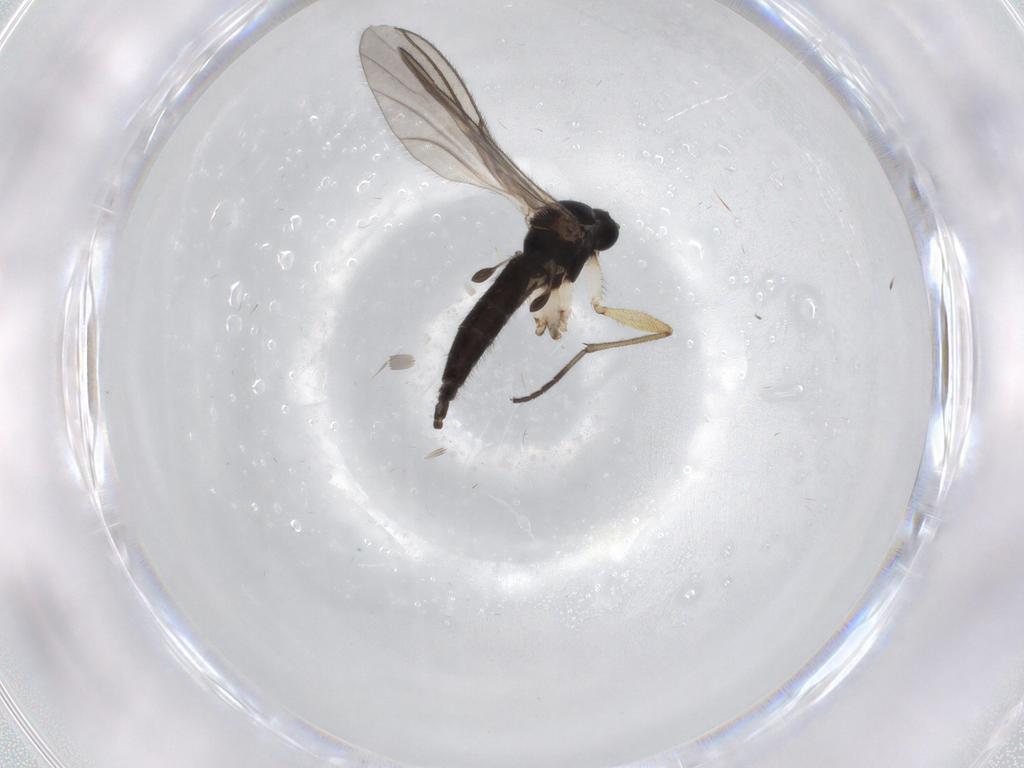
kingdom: Animalia
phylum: Arthropoda
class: Insecta
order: Diptera
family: Sciaridae
